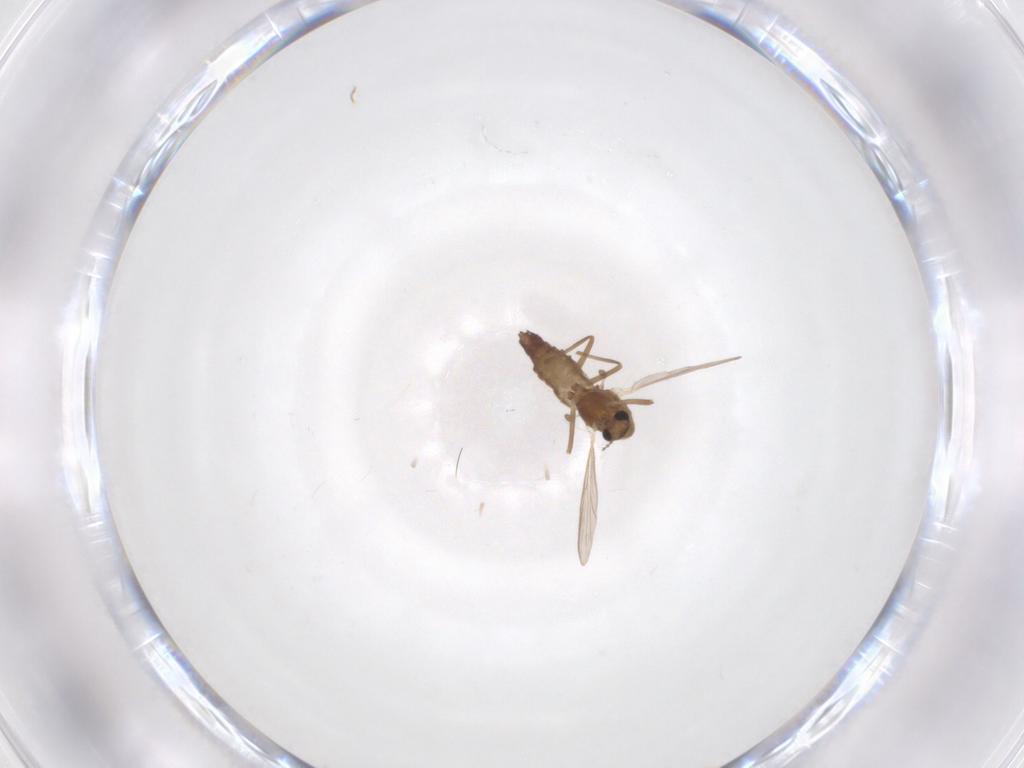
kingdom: Animalia
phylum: Arthropoda
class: Insecta
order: Diptera
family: Chironomidae
